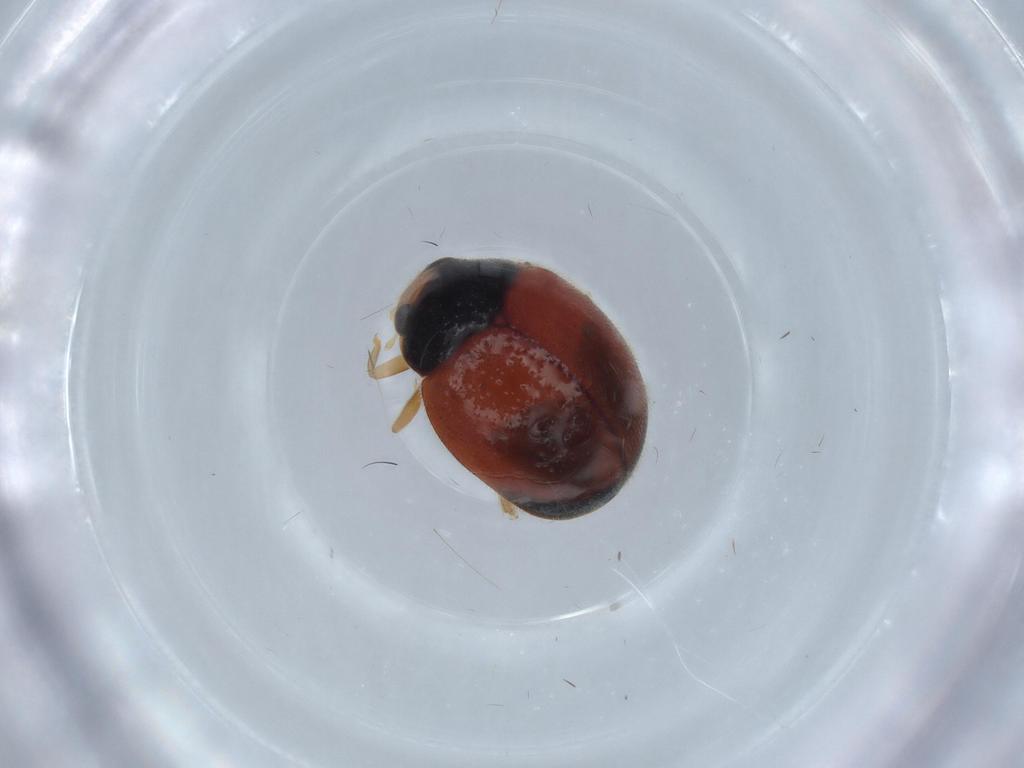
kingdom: Animalia
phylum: Arthropoda
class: Insecta
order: Coleoptera
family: Coccinellidae
